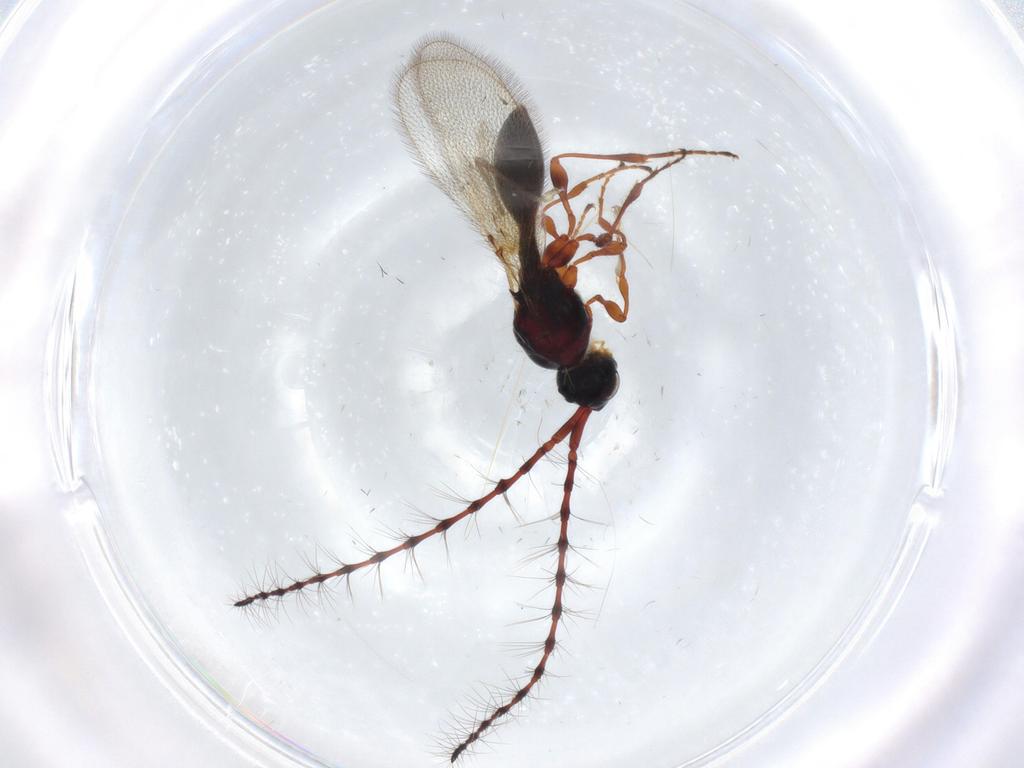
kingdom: Animalia
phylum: Arthropoda
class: Insecta
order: Hymenoptera
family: Diapriidae
